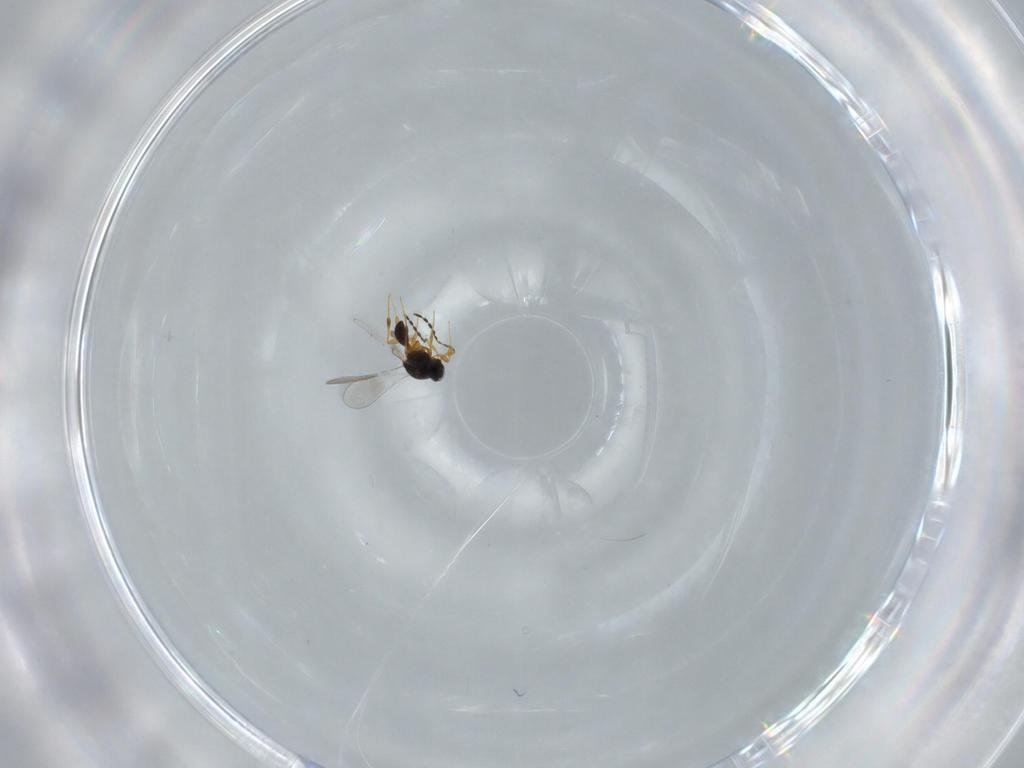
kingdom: Animalia
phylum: Arthropoda
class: Insecta
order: Hymenoptera
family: Platygastridae
